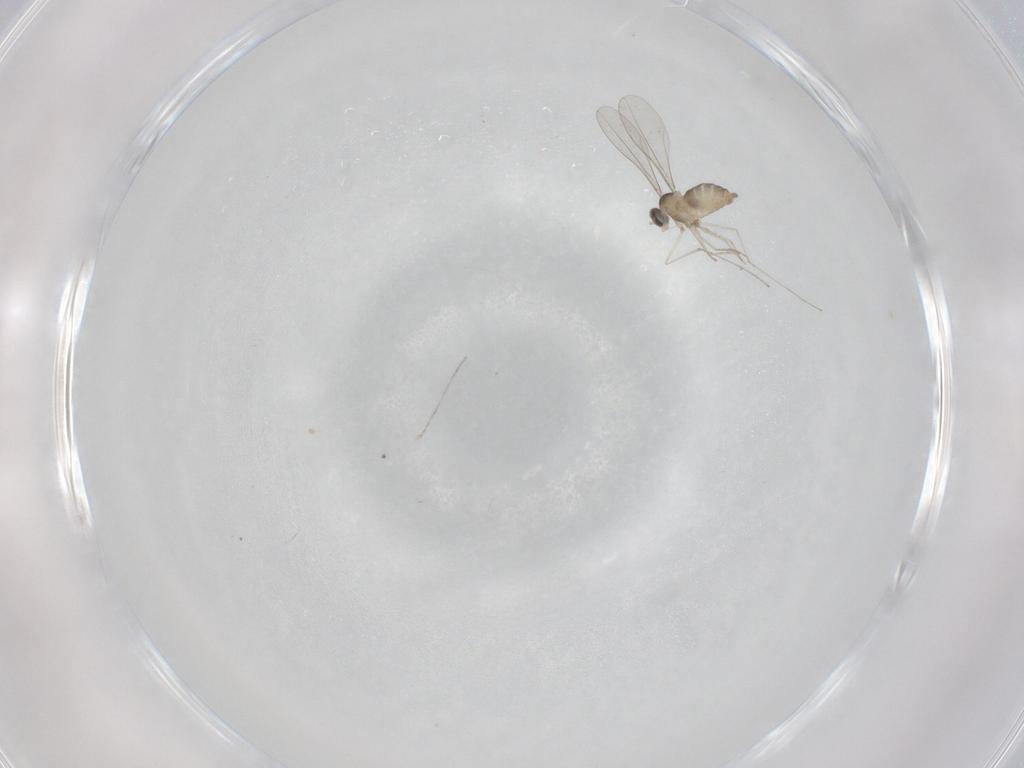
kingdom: Animalia
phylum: Arthropoda
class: Insecta
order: Diptera
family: Cecidomyiidae
